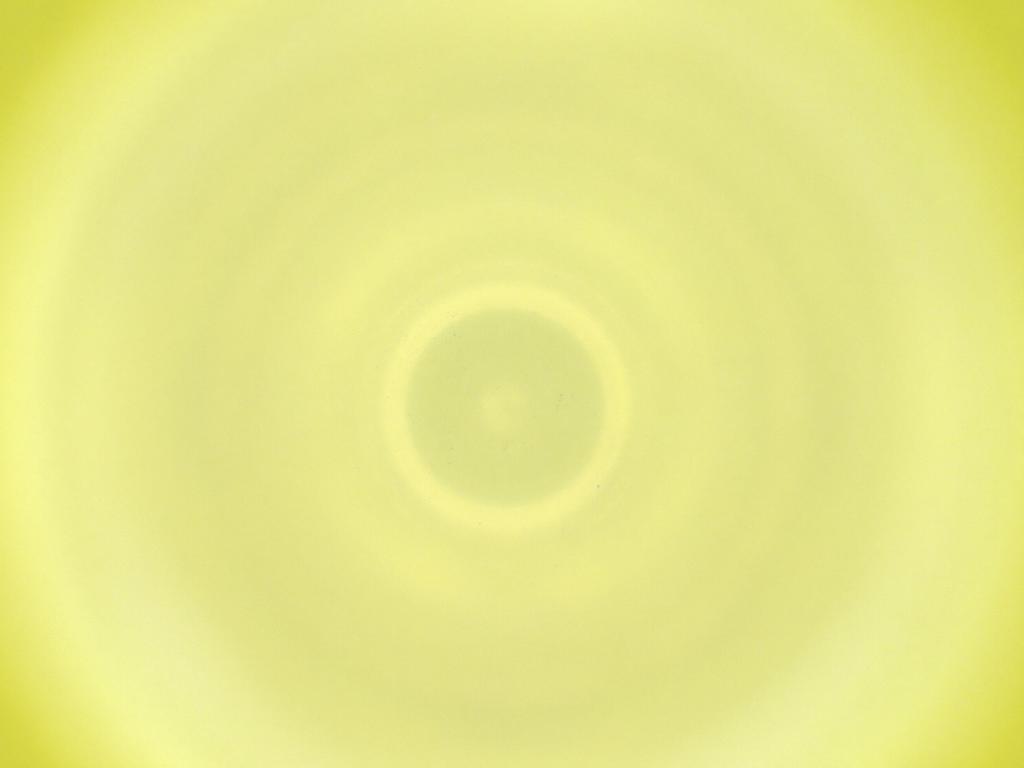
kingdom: Animalia
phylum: Arthropoda
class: Insecta
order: Diptera
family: Cecidomyiidae
